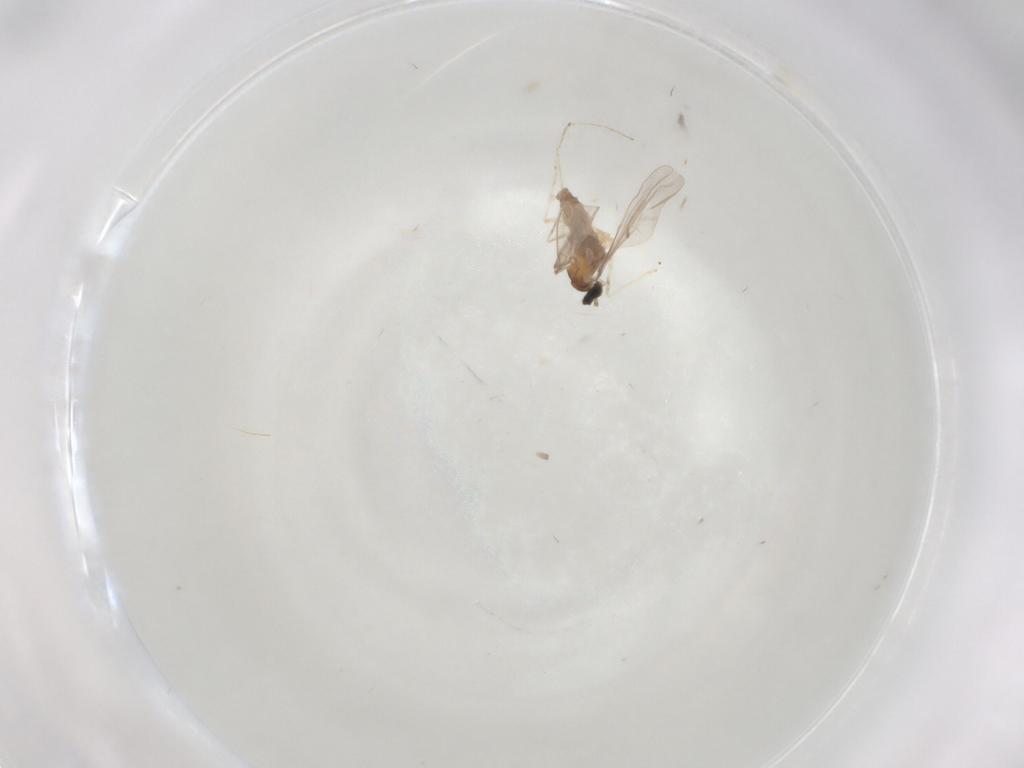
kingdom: Animalia
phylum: Arthropoda
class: Insecta
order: Diptera
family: Cecidomyiidae
